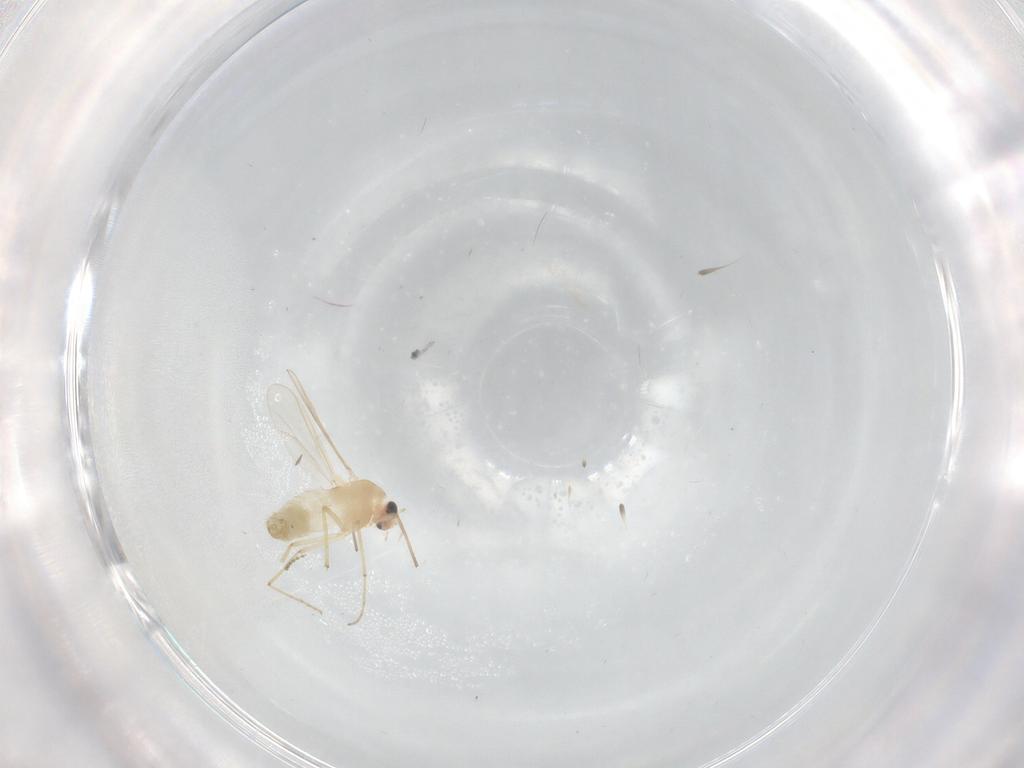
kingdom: Animalia
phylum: Arthropoda
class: Insecta
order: Diptera
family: Chironomidae
